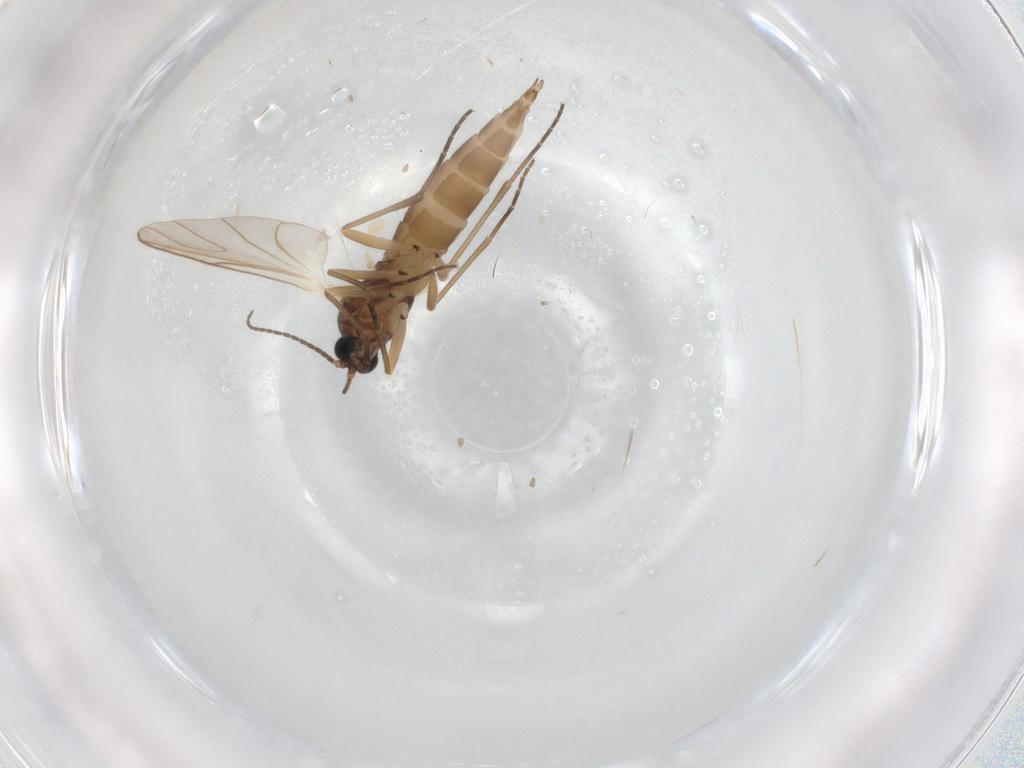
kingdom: Animalia
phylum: Arthropoda
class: Insecta
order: Diptera
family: Sciaridae
